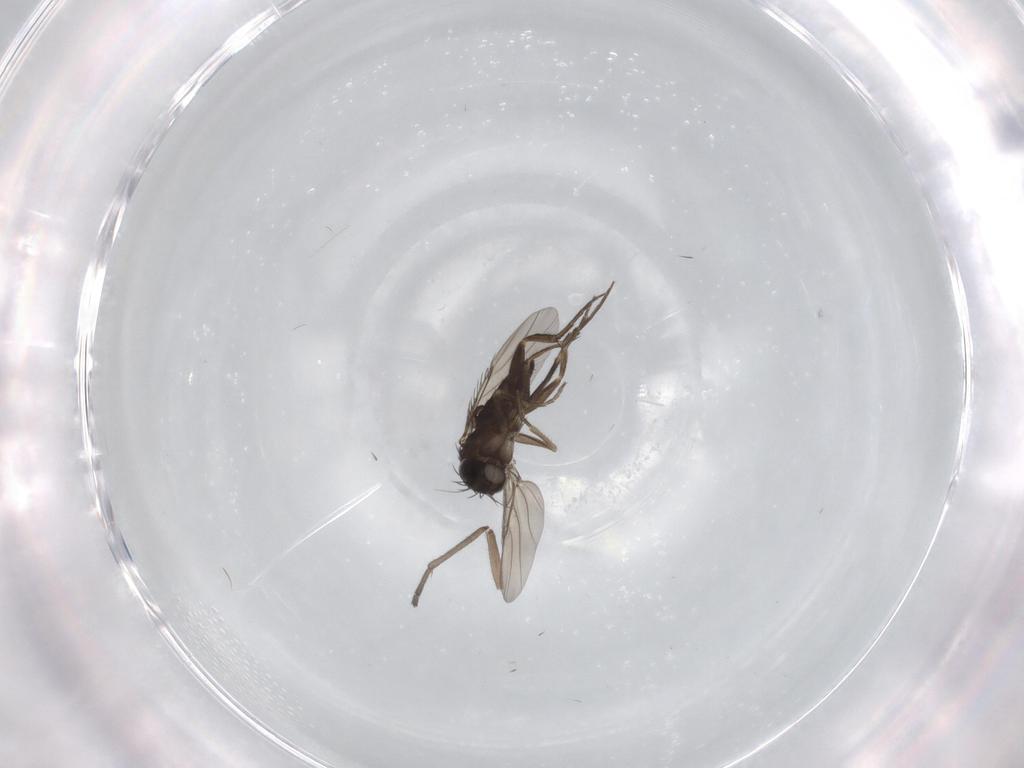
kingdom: Animalia
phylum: Arthropoda
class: Insecta
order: Diptera
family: Phoridae
